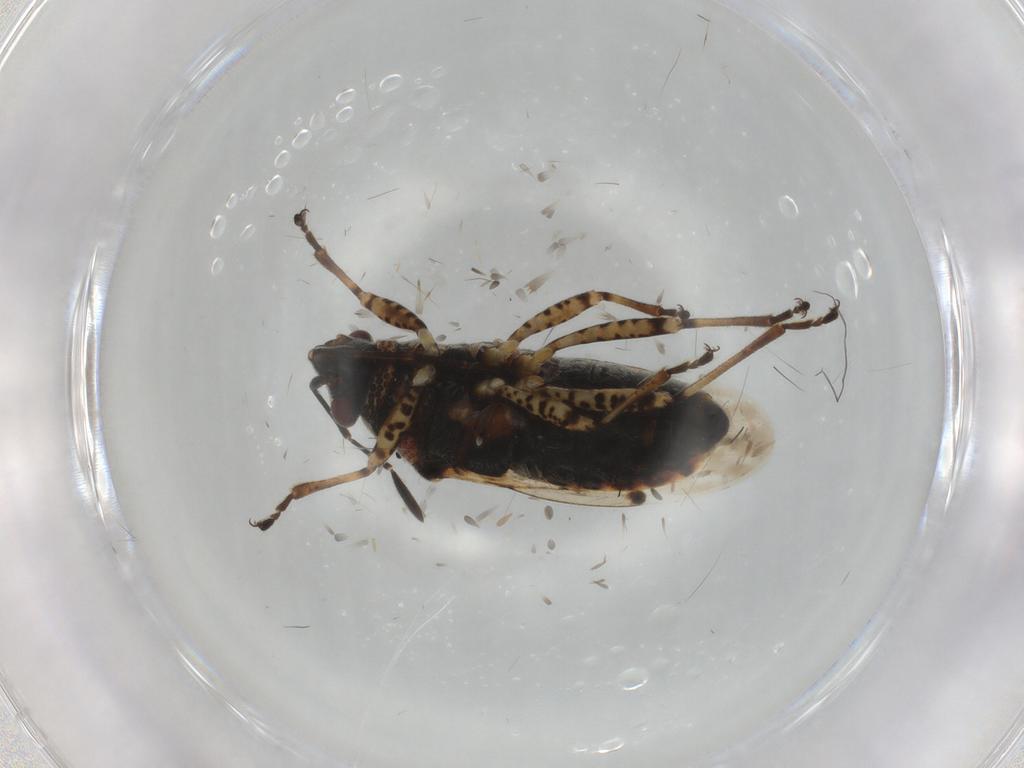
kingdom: Animalia
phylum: Arthropoda
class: Insecta
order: Hemiptera
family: Lygaeidae
